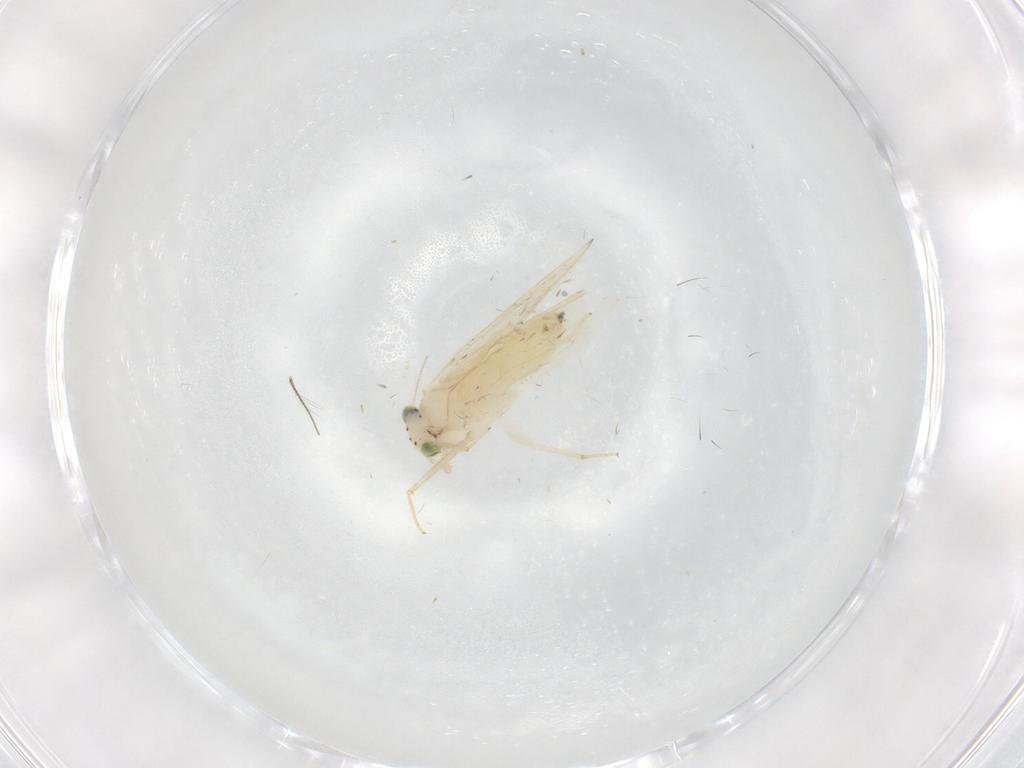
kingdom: Animalia
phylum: Arthropoda
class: Insecta
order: Psocodea
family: Lepidopsocidae
